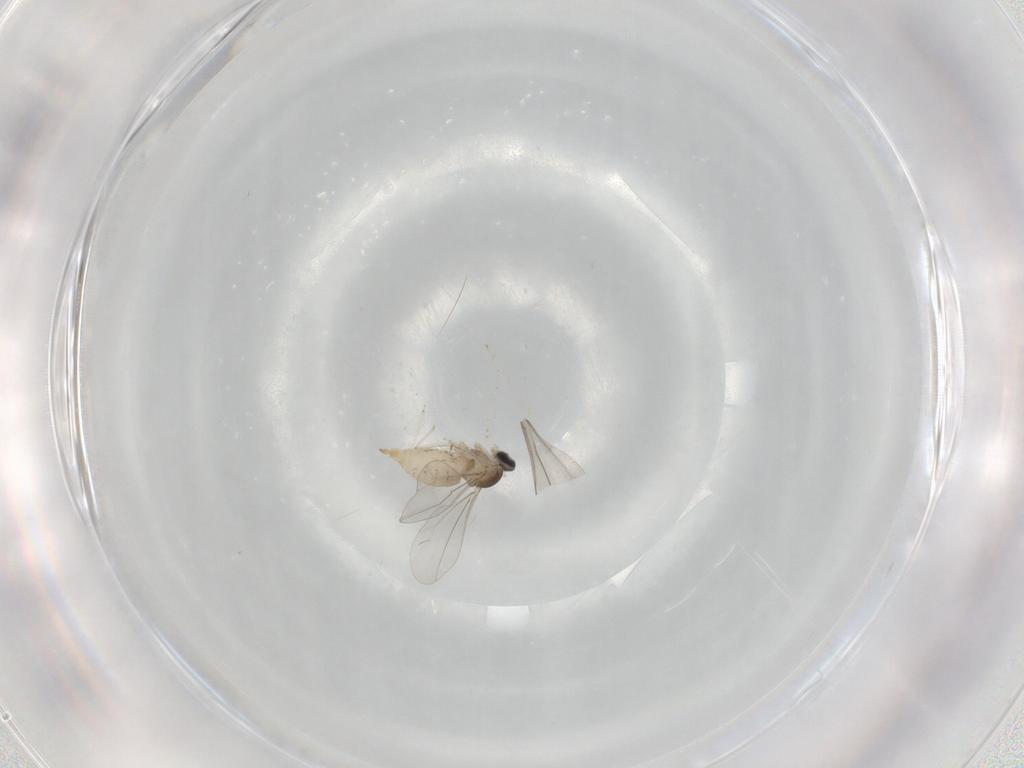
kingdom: Animalia
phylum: Arthropoda
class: Insecta
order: Diptera
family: Cecidomyiidae
